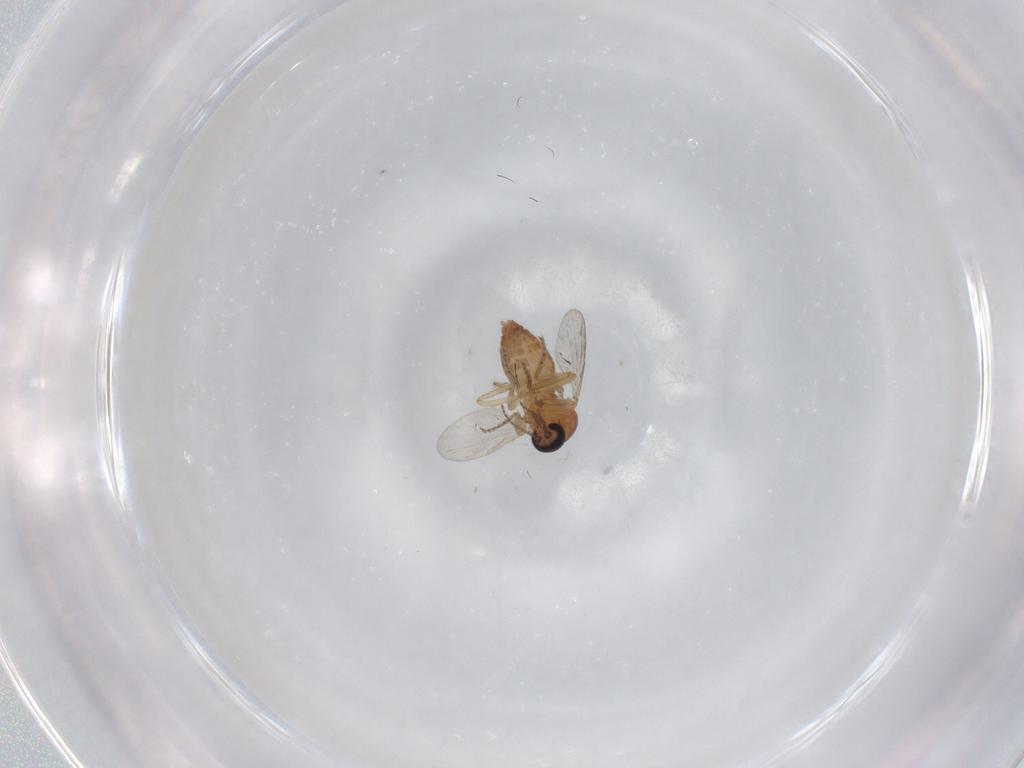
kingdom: Animalia
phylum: Arthropoda
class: Insecta
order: Diptera
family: Ceratopogonidae
